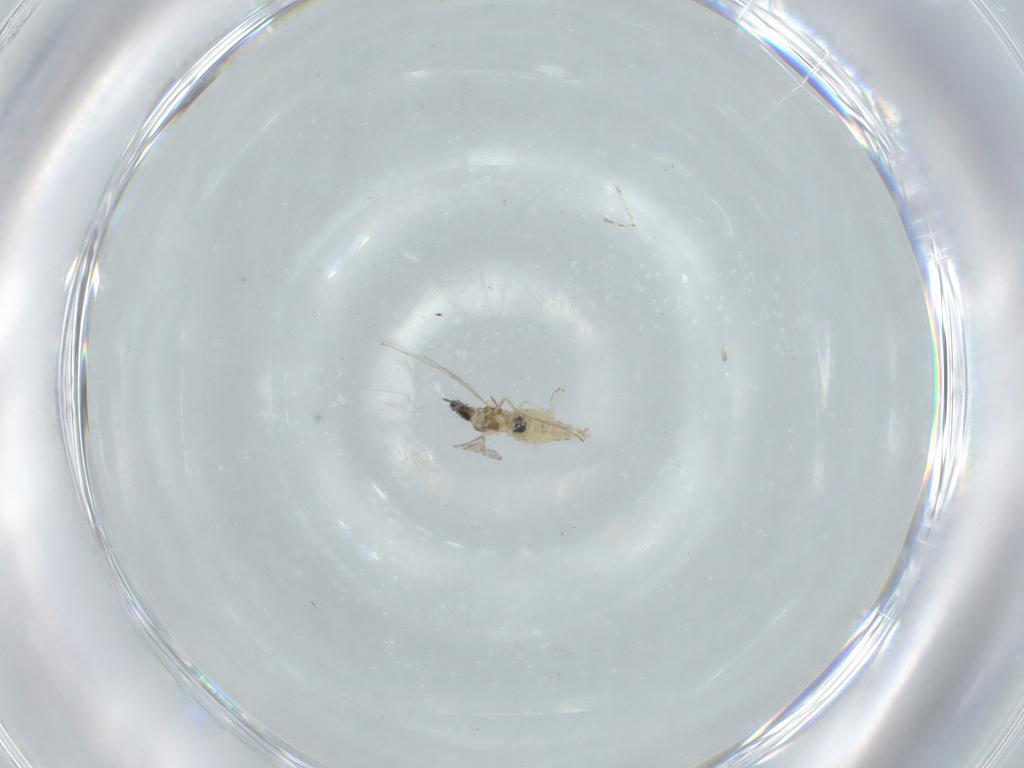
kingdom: Animalia
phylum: Arthropoda
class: Insecta
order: Diptera
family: Cecidomyiidae
